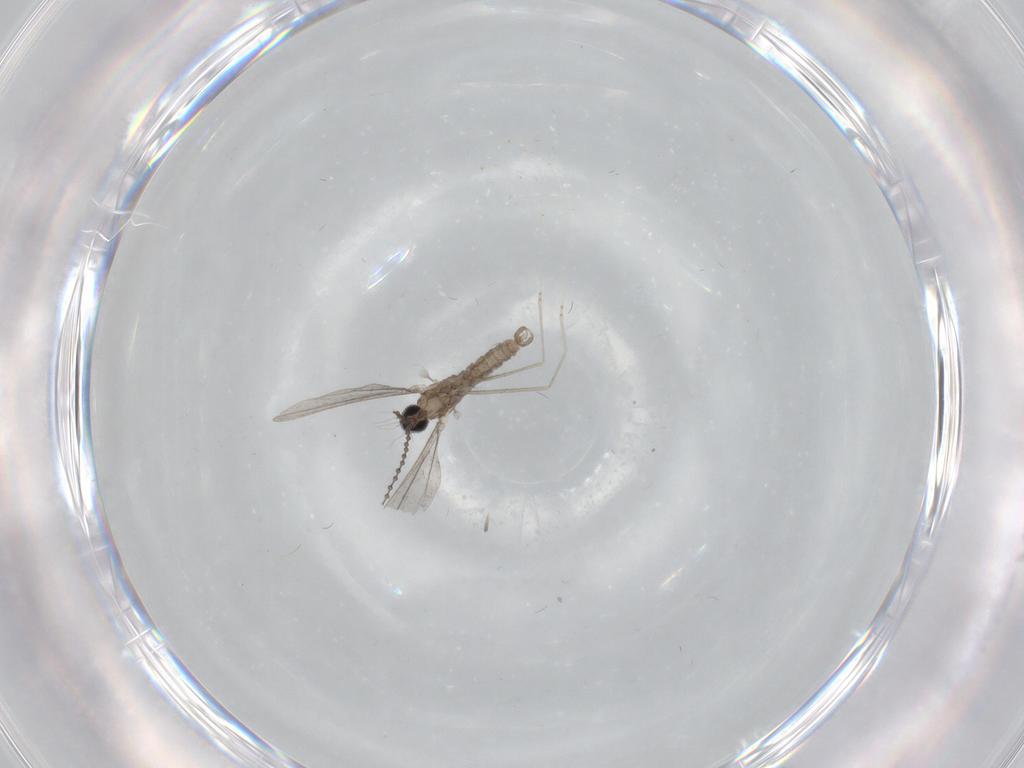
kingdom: Animalia
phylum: Arthropoda
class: Insecta
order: Diptera
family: Cecidomyiidae
